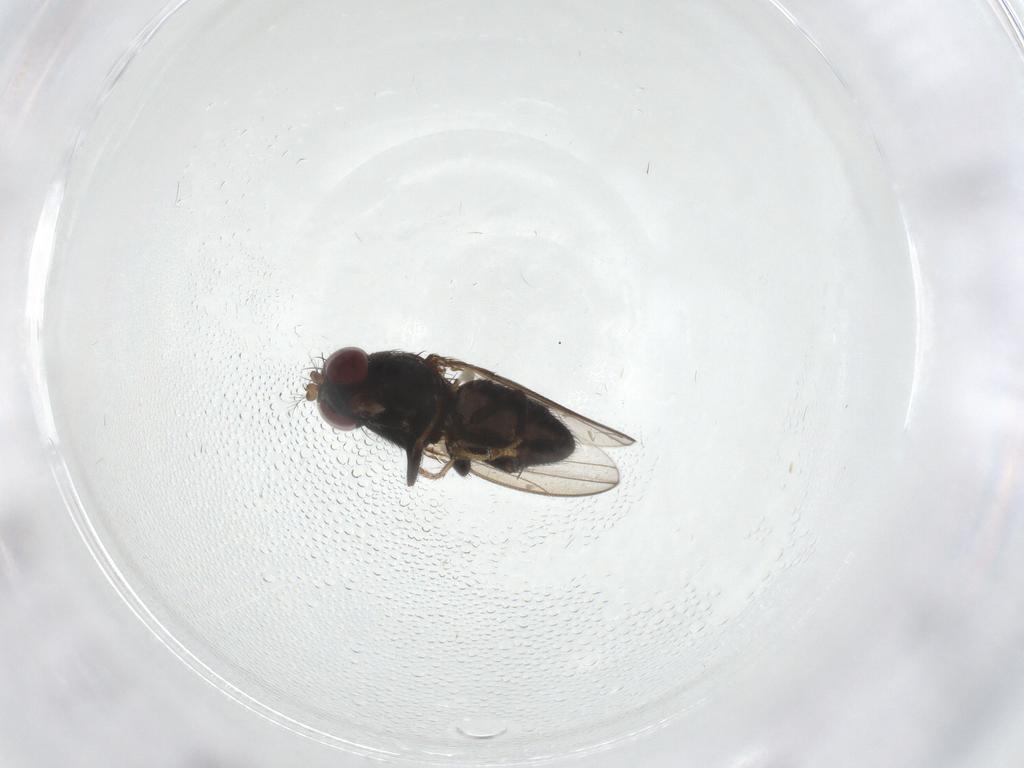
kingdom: Animalia
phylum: Arthropoda
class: Insecta
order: Diptera
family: Ephydridae
